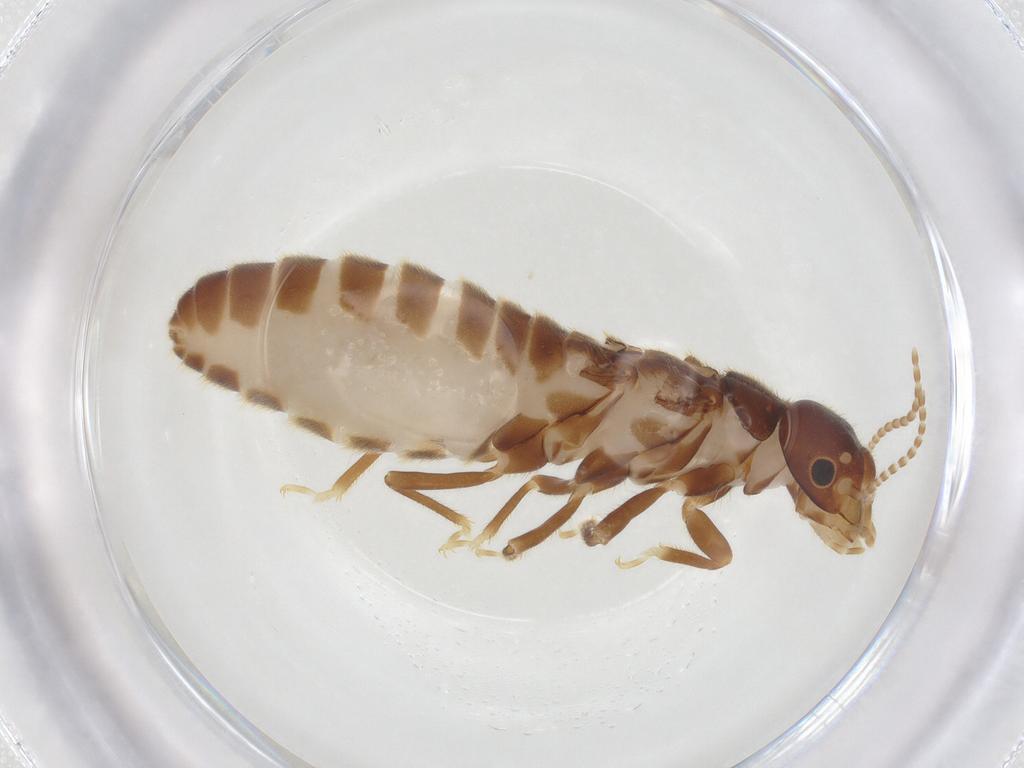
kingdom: Animalia
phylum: Arthropoda
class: Insecta
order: Blattodea
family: Termitidae
